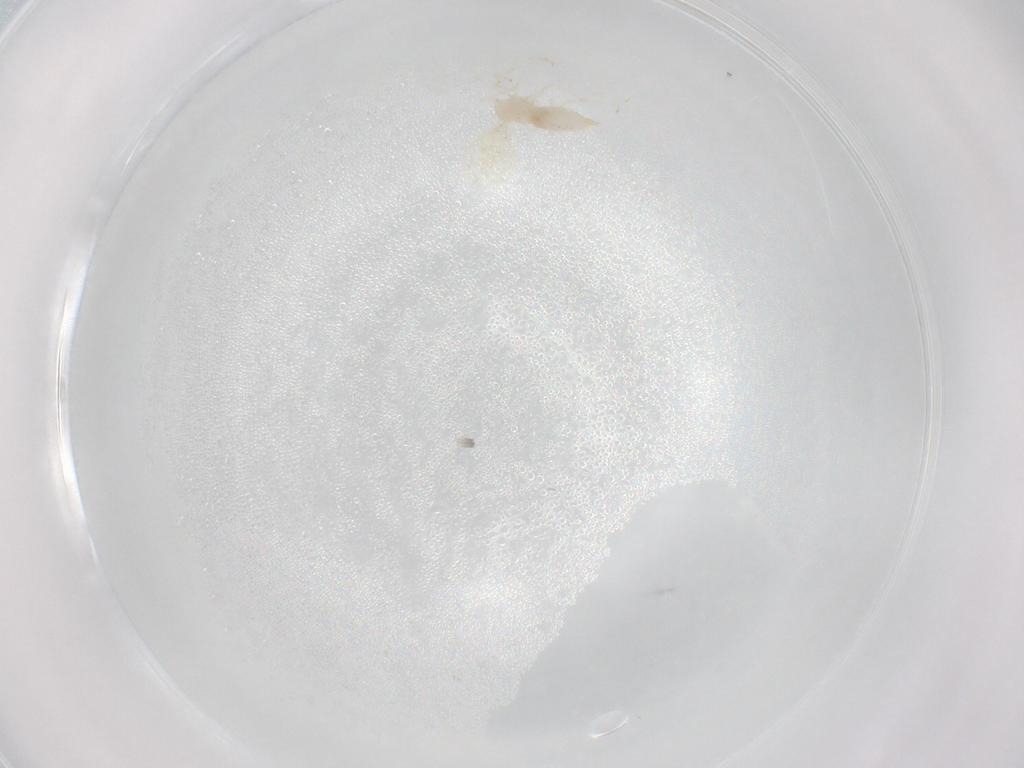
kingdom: Animalia
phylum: Arthropoda
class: Insecta
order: Diptera
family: Cecidomyiidae
